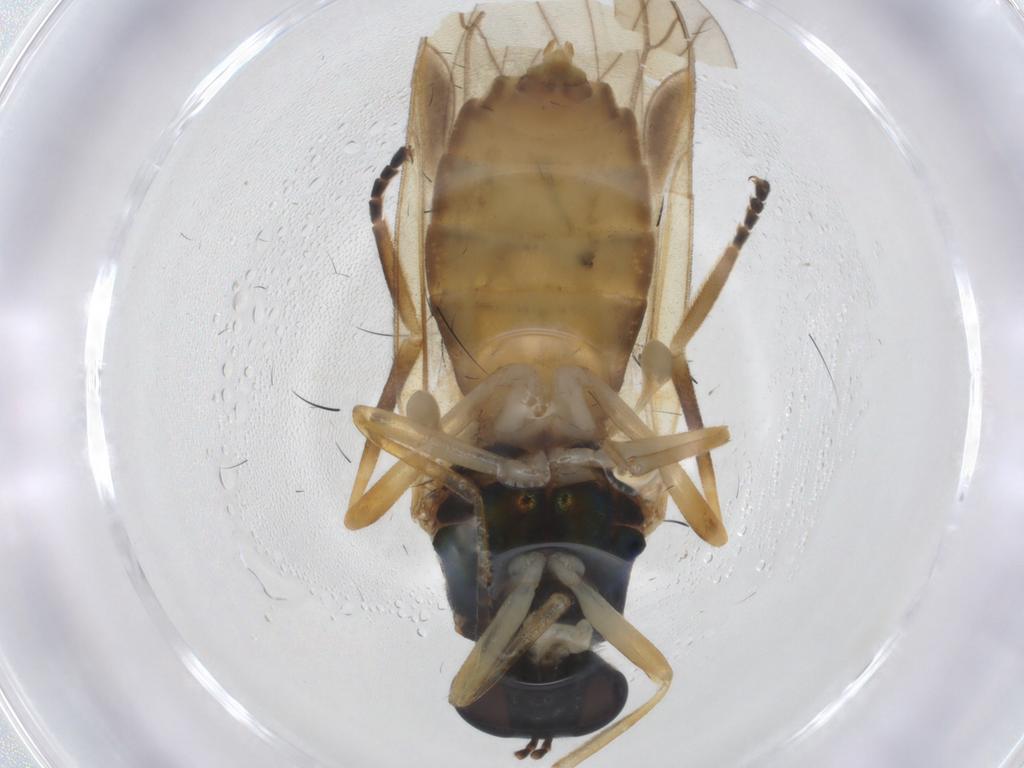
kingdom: Animalia
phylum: Arthropoda
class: Insecta
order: Diptera
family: Stratiomyidae
